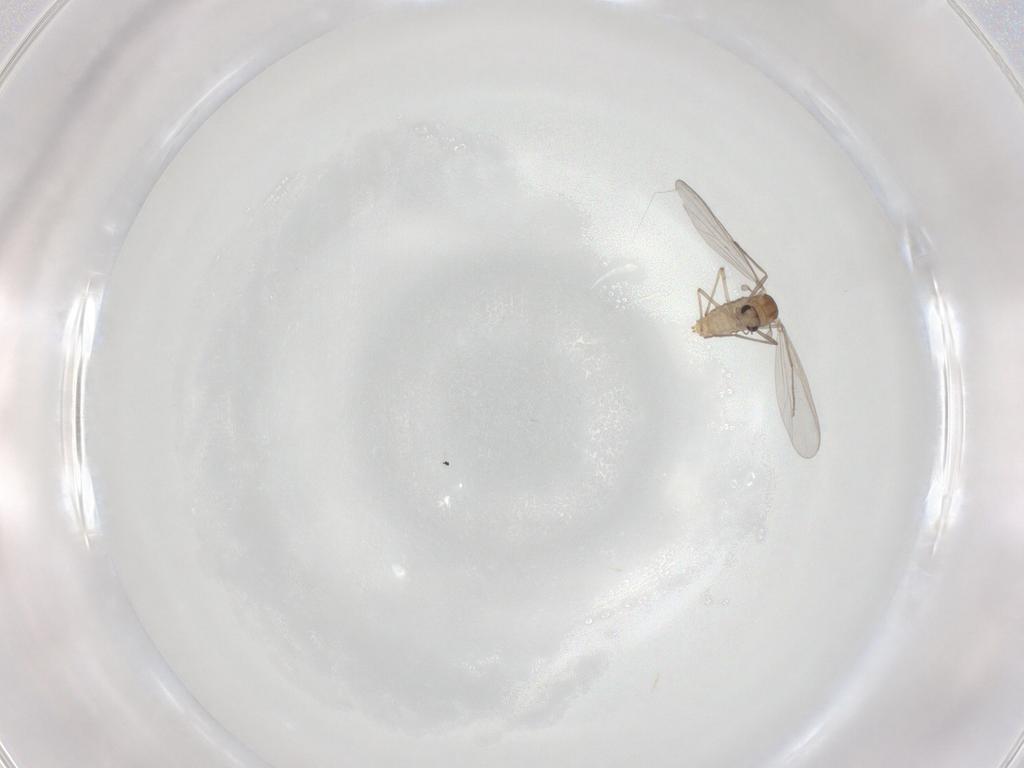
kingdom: Animalia
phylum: Arthropoda
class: Insecta
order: Diptera
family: Chironomidae
